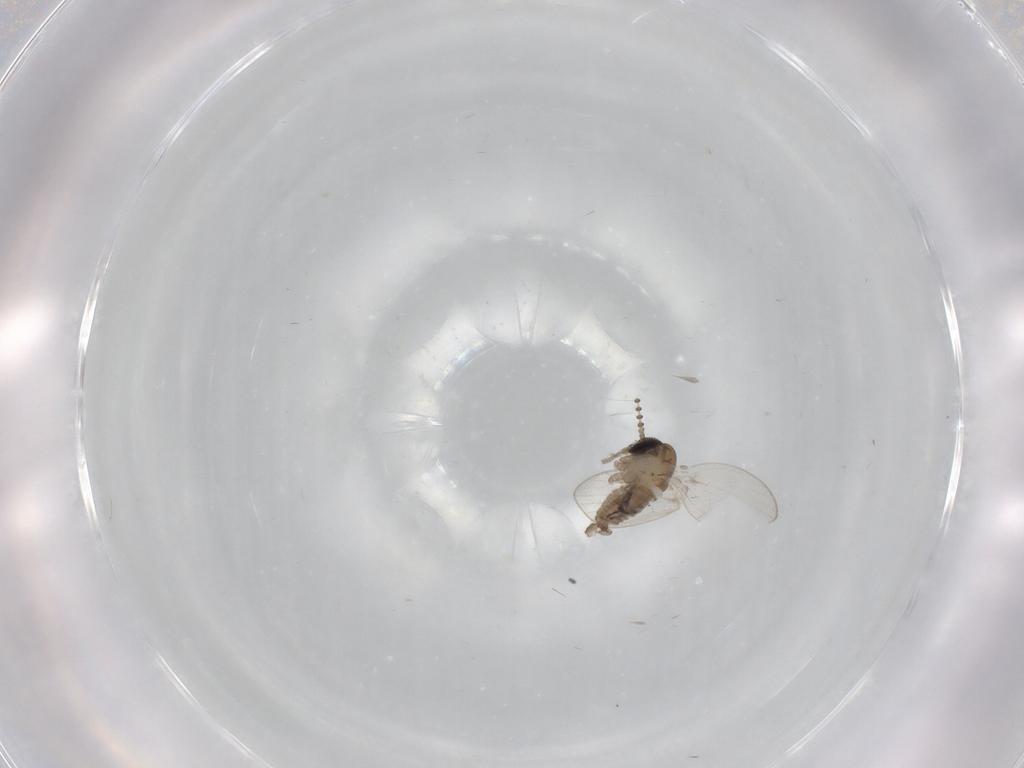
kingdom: Animalia
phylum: Arthropoda
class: Insecta
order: Diptera
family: Psychodidae
